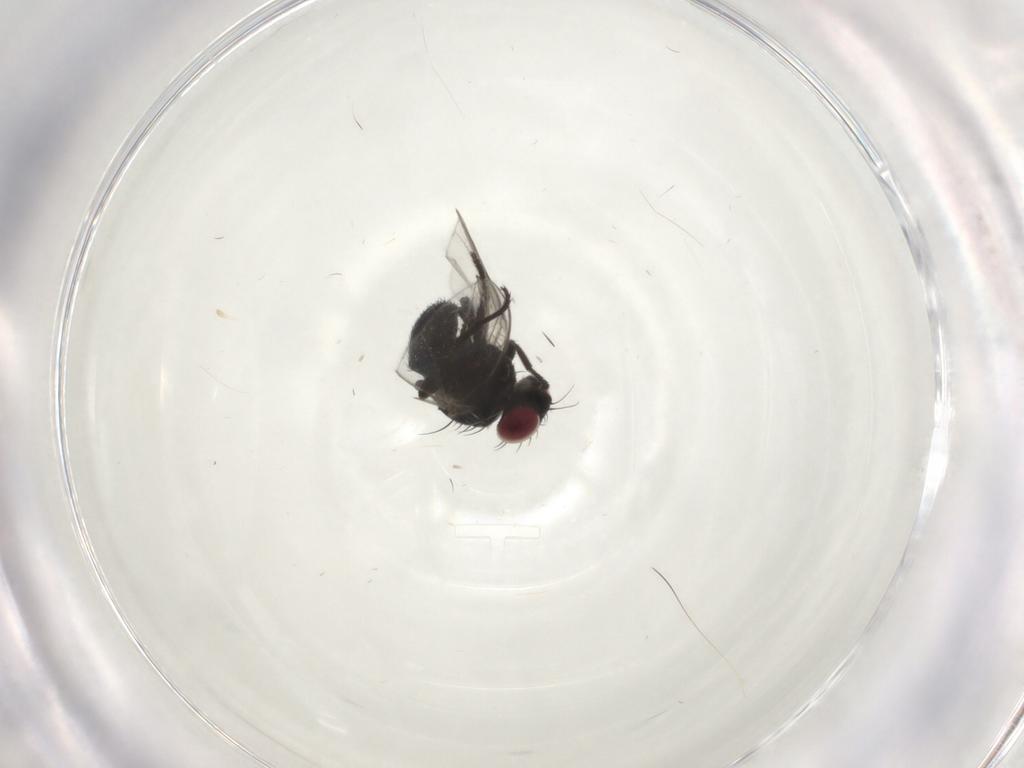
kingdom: Animalia
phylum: Arthropoda
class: Insecta
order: Diptera
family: Agromyzidae
